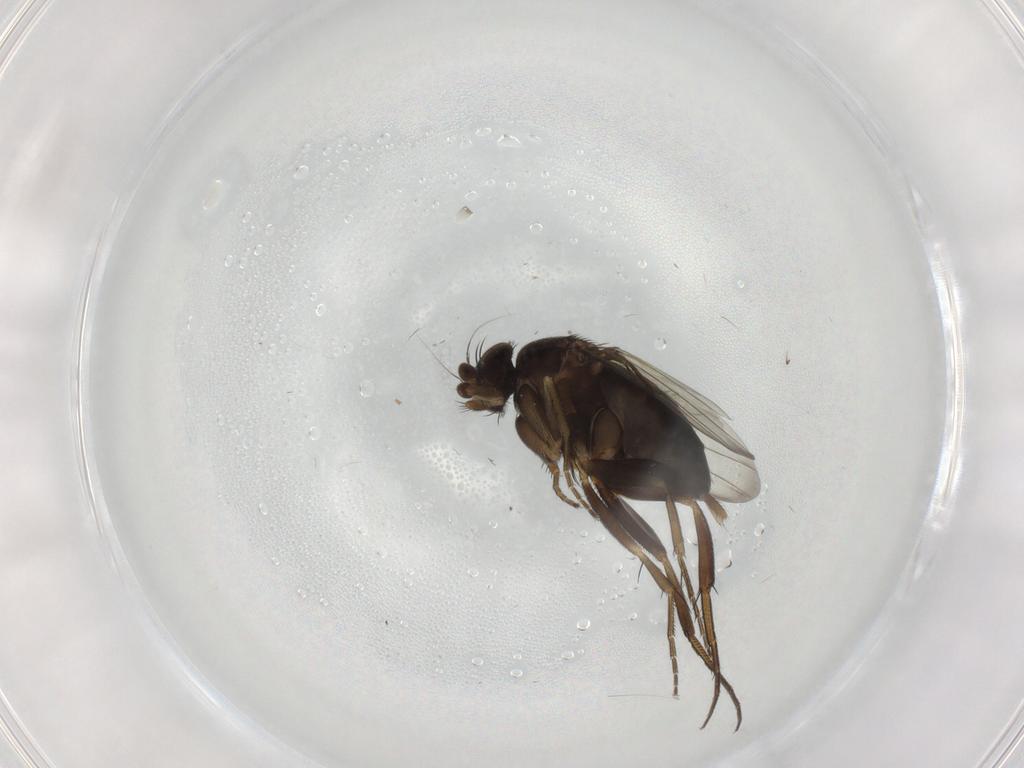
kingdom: Animalia
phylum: Arthropoda
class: Insecta
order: Diptera
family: Phoridae
